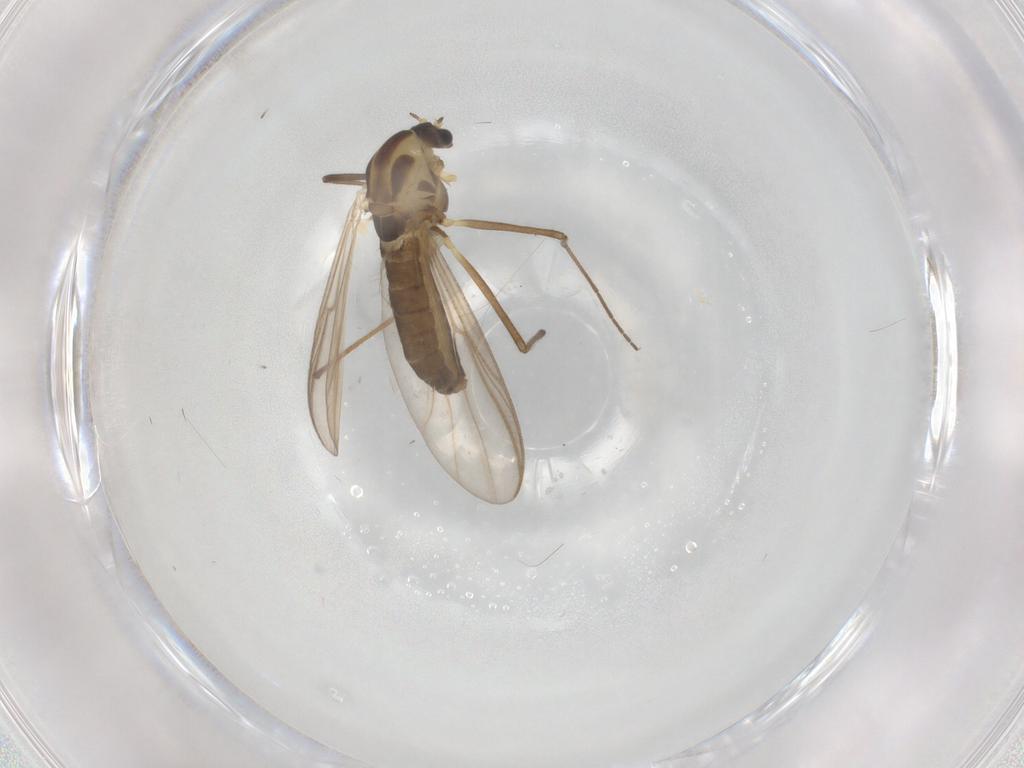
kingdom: Animalia
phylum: Arthropoda
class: Insecta
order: Diptera
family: Chironomidae
